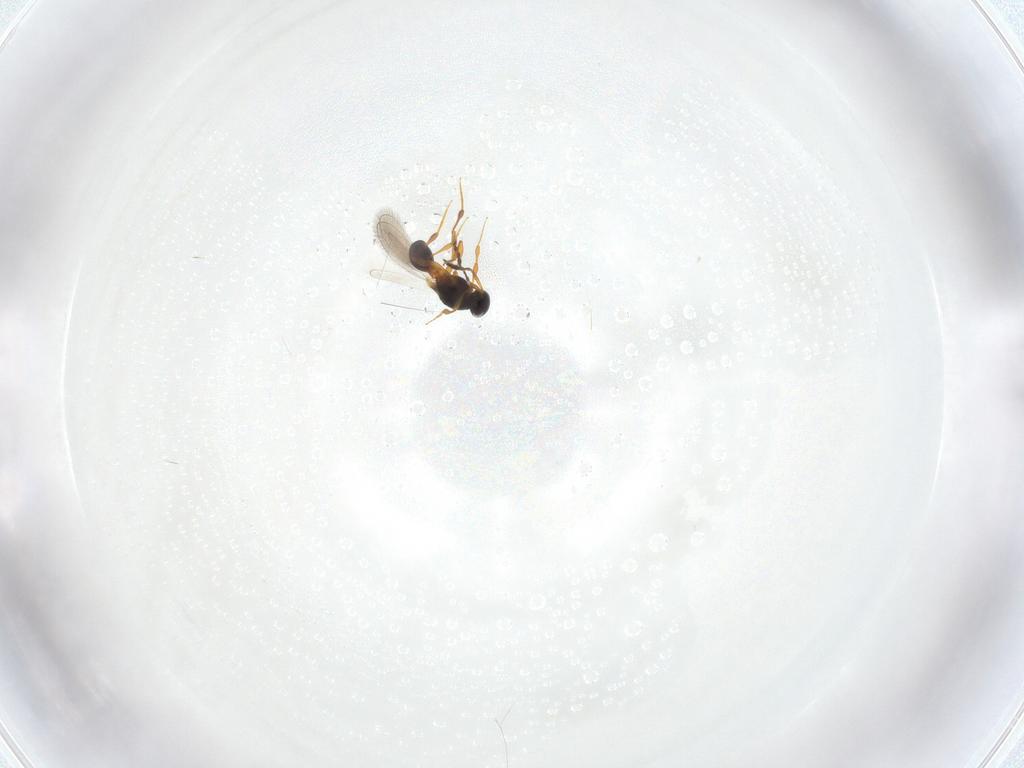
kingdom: Animalia
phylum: Arthropoda
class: Insecta
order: Hymenoptera
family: Platygastridae
